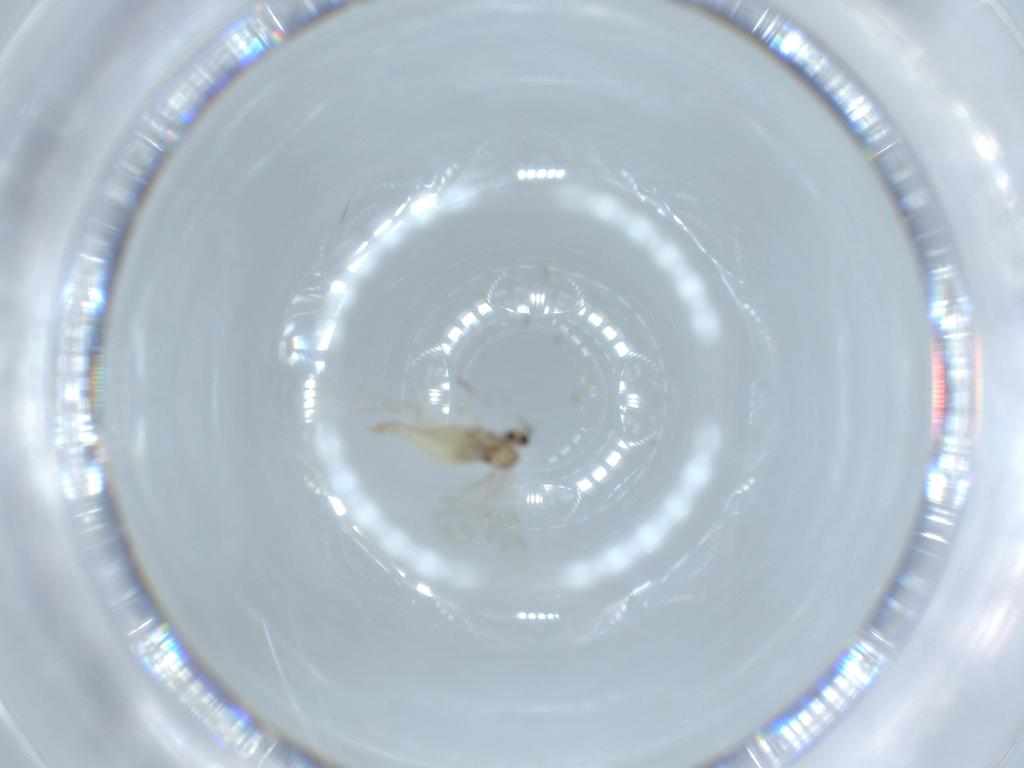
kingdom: Animalia
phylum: Arthropoda
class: Insecta
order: Diptera
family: Cecidomyiidae
